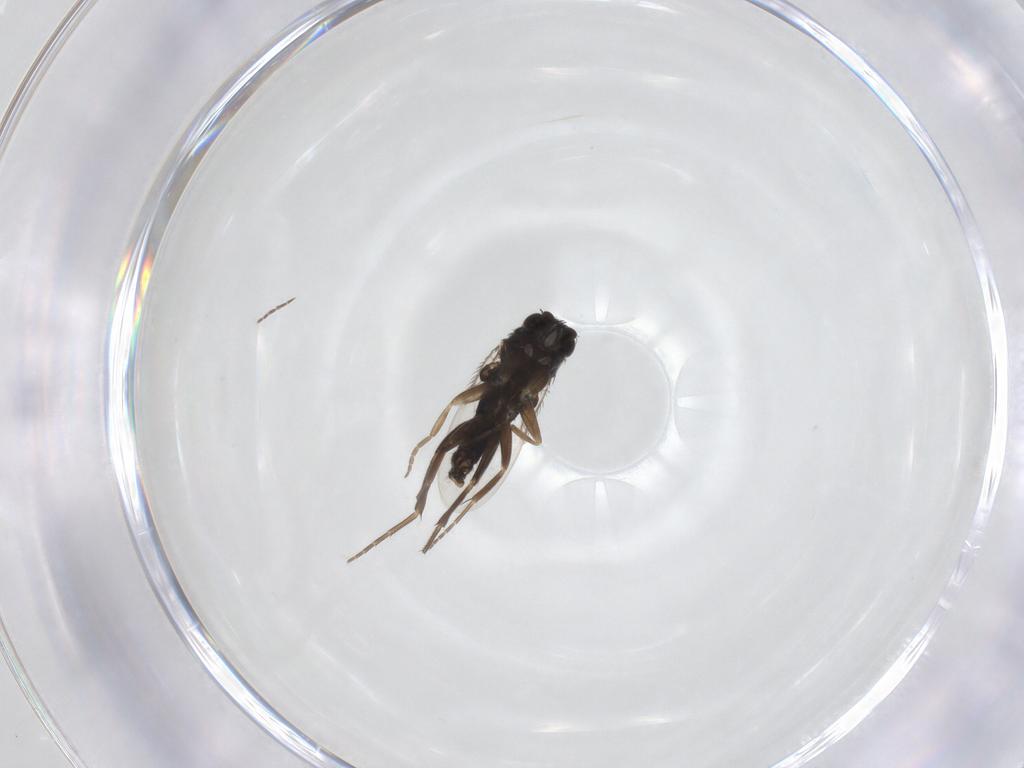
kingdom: Animalia
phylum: Arthropoda
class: Insecta
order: Diptera
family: Phoridae
